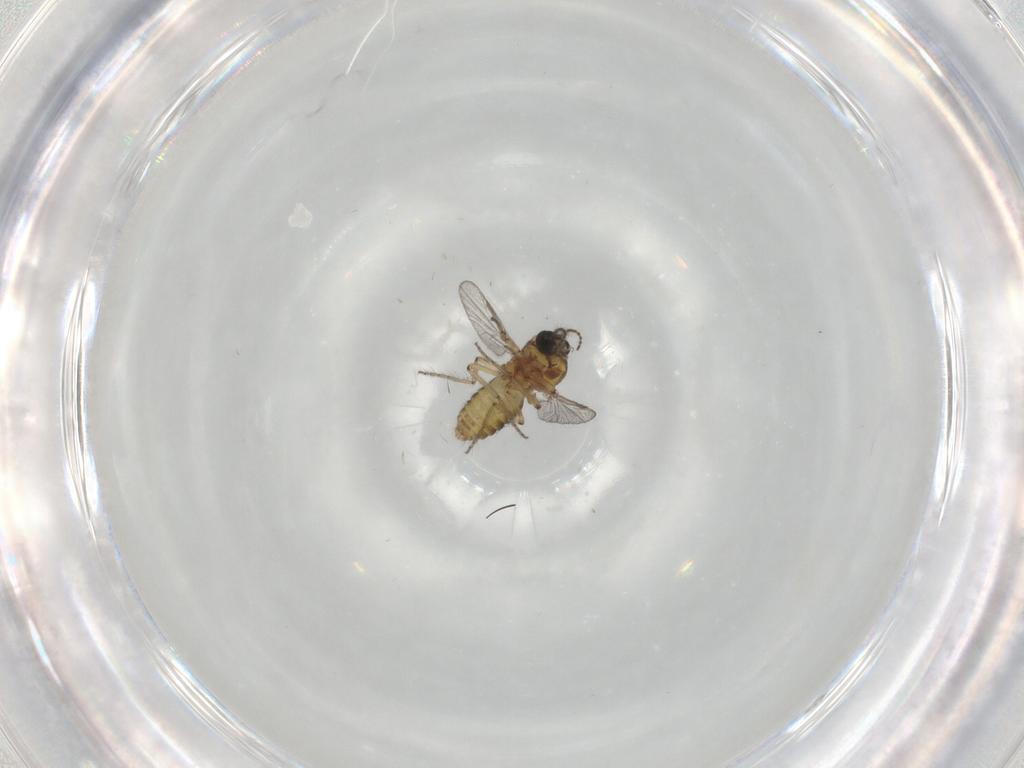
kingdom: Animalia
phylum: Arthropoda
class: Insecta
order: Diptera
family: Ceratopogonidae
